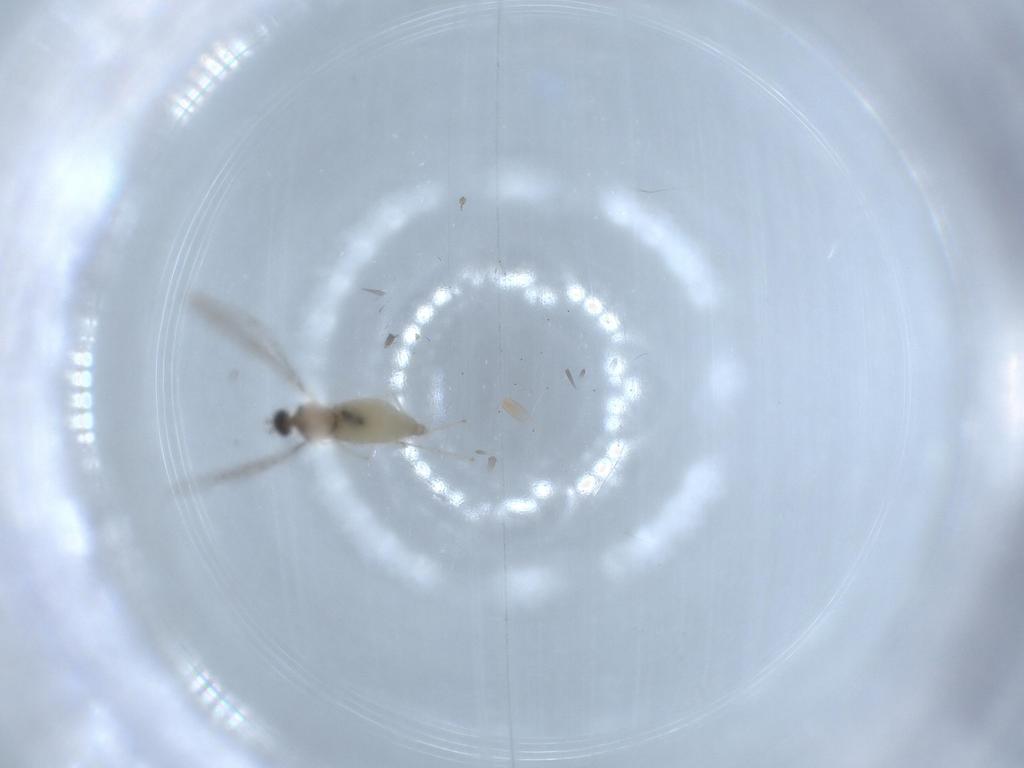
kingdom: Animalia
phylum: Arthropoda
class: Insecta
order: Diptera
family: Cecidomyiidae
